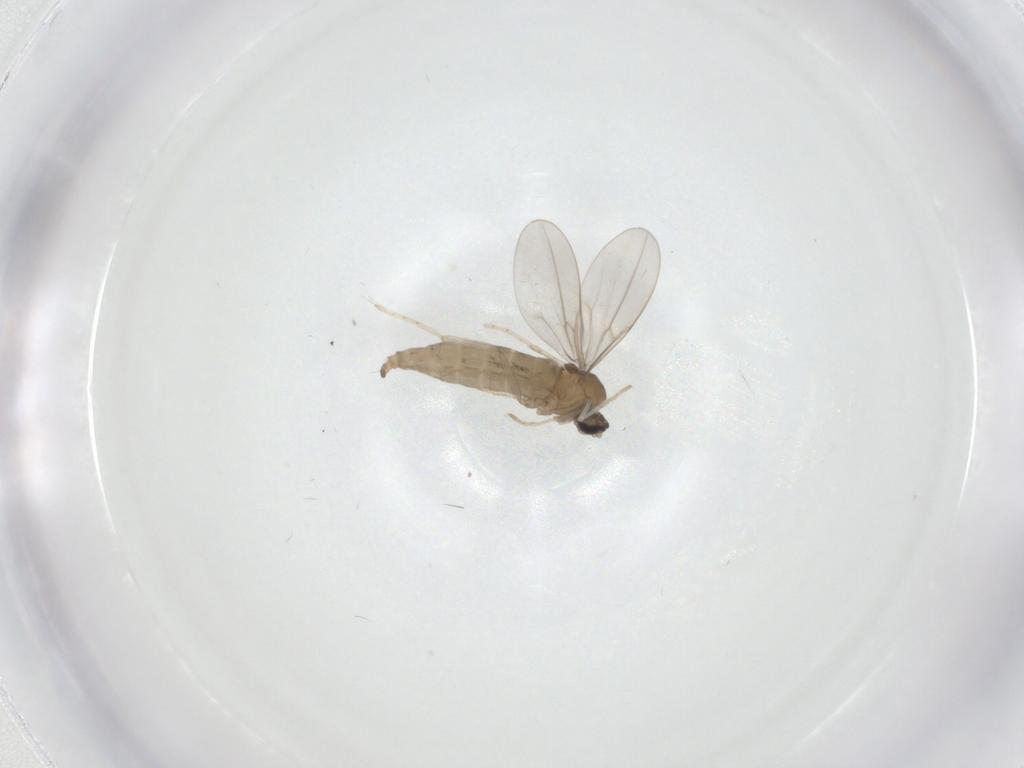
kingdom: Animalia
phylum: Arthropoda
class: Insecta
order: Diptera
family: Cecidomyiidae
